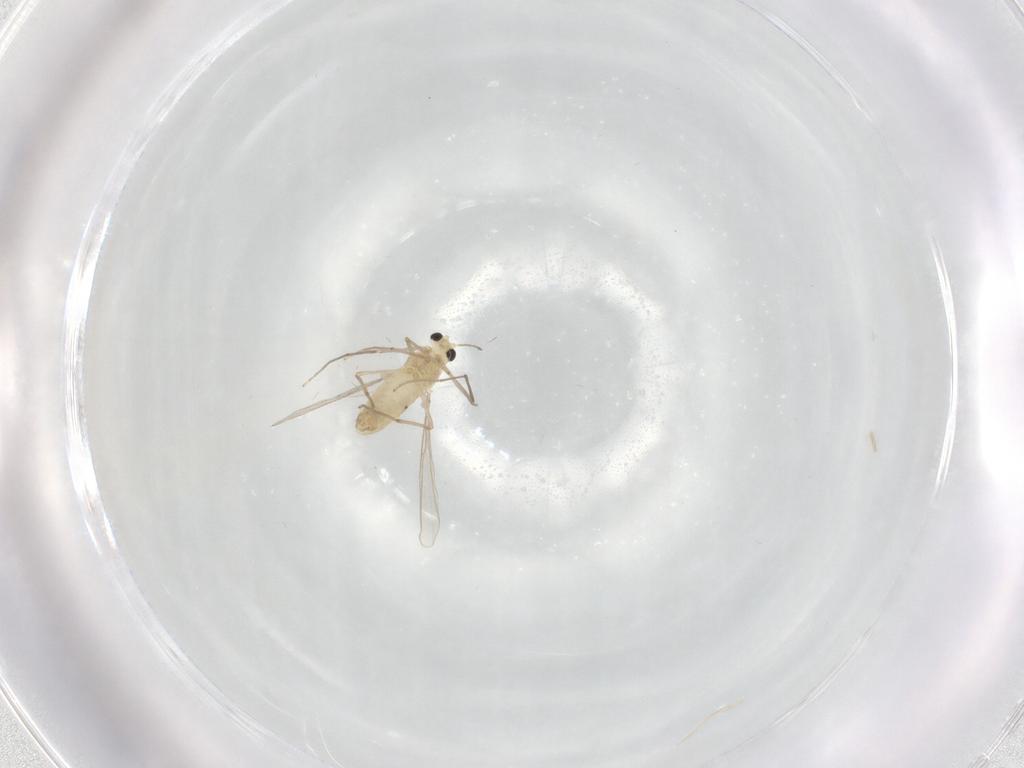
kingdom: Animalia
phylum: Arthropoda
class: Insecta
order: Diptera
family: Chironomidae
